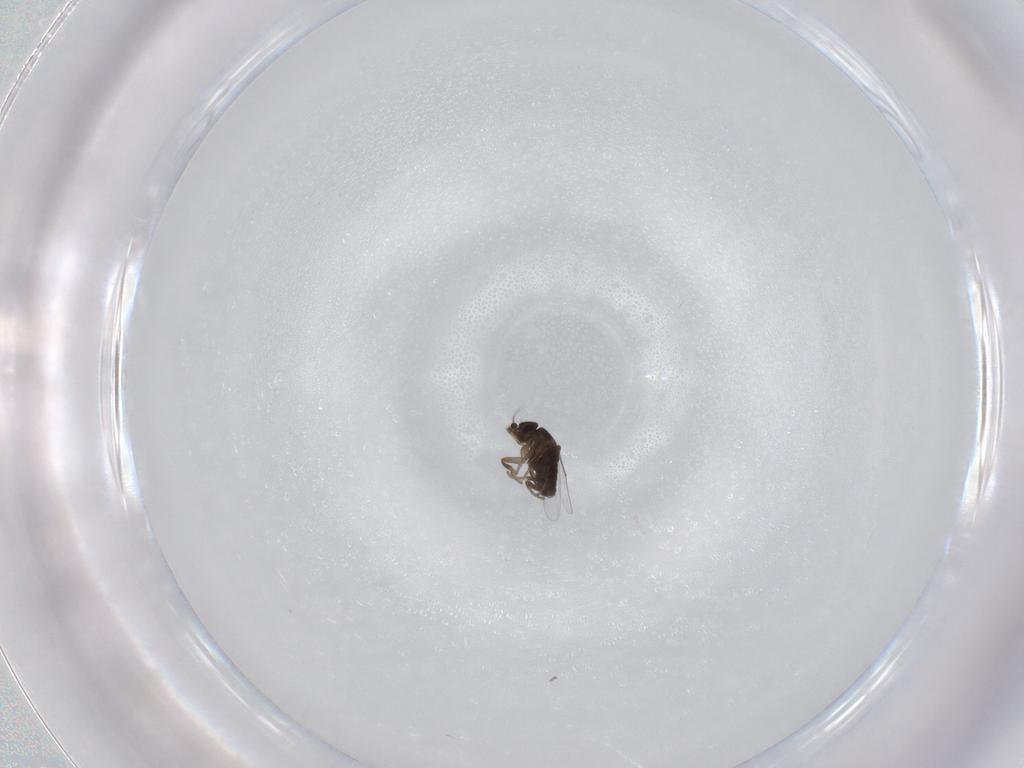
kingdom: Animalia
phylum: Arthropoda
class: Insecta
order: Diptera
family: Phoridae
